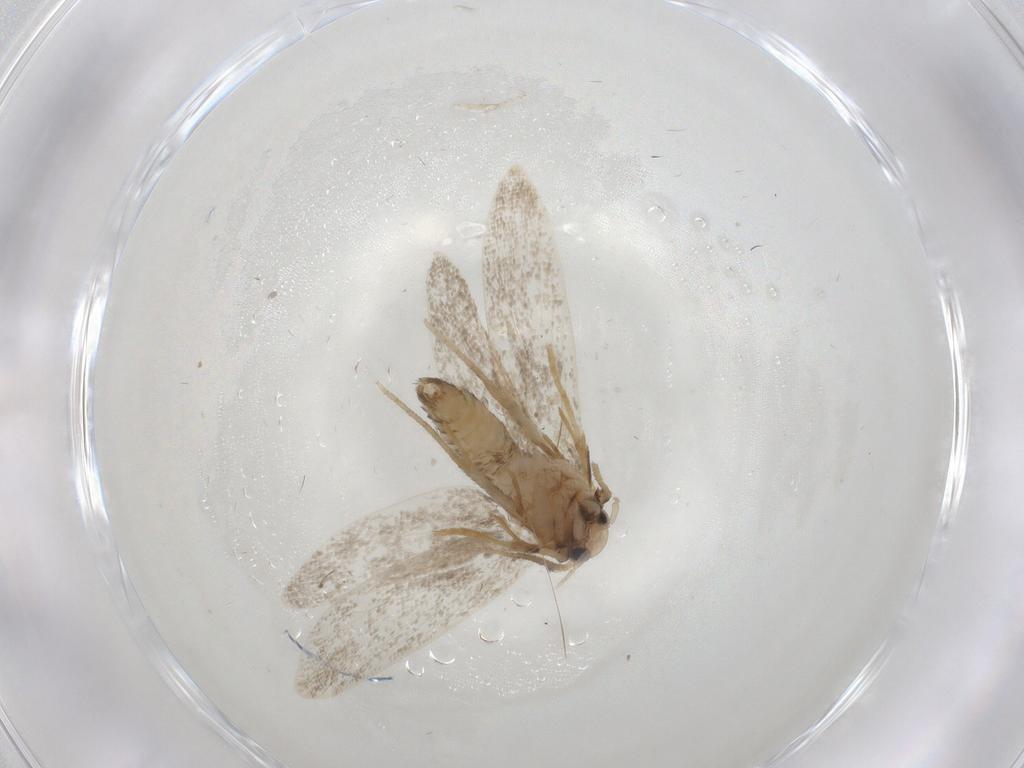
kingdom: Animalia
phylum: Arthropoda
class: Insecta
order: Lepidoptera
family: Psychidae
